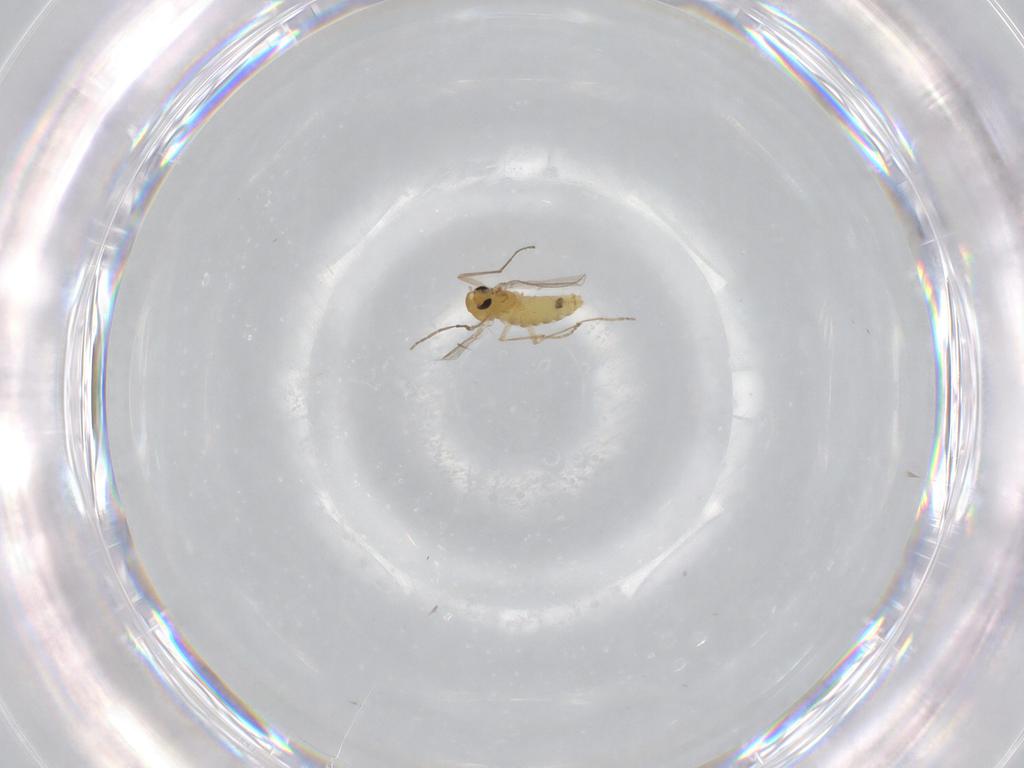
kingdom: Animalia
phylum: Arthropoda
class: Insecta
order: Diptera
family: Chironomidae
